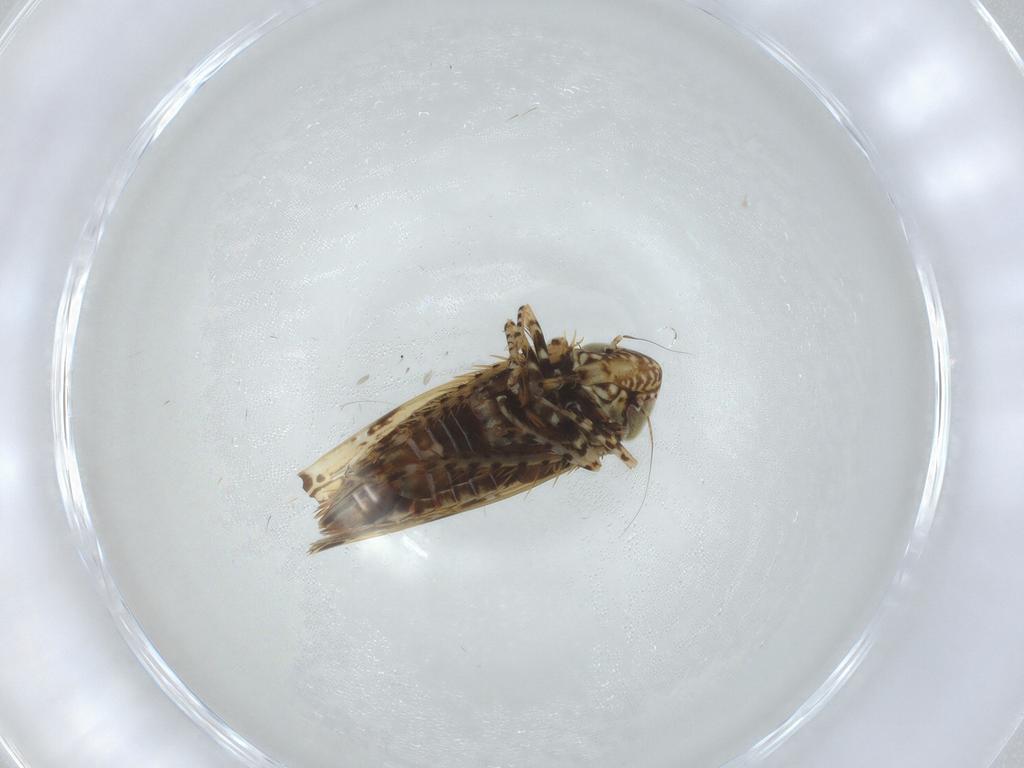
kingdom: Animalia
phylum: Arthropoda
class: Insecta
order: Hemiptera
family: Cicadellidae
